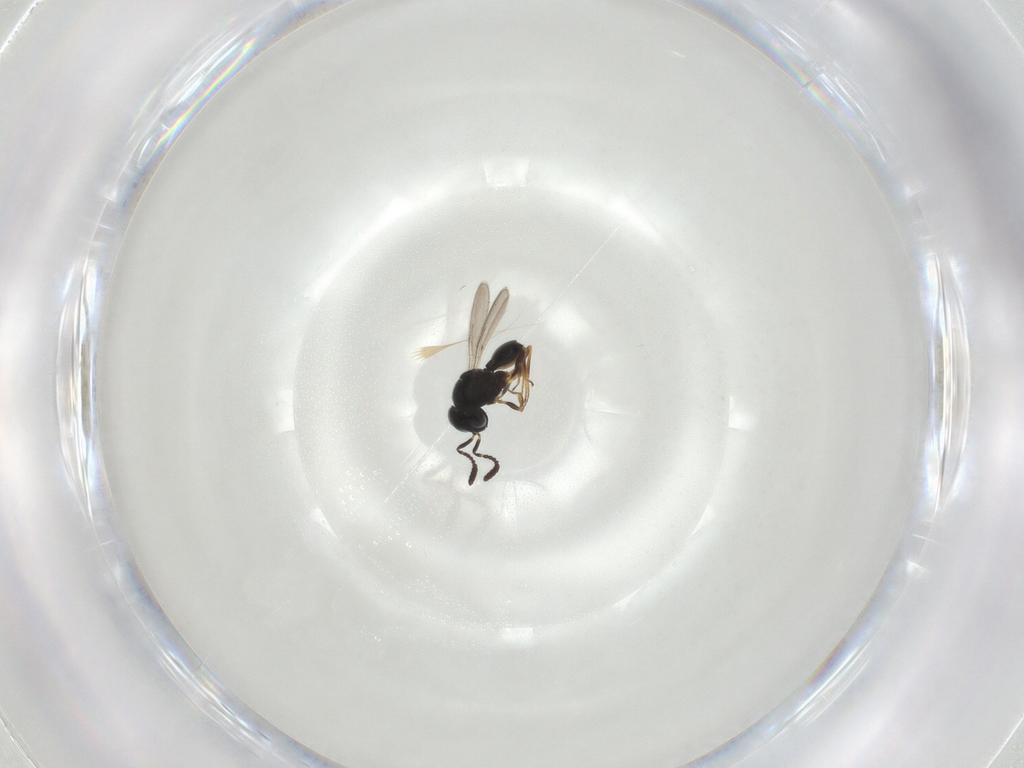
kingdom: Animalia
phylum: Arthropoda
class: Insecta
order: Hymenoptera
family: Scelionidae
